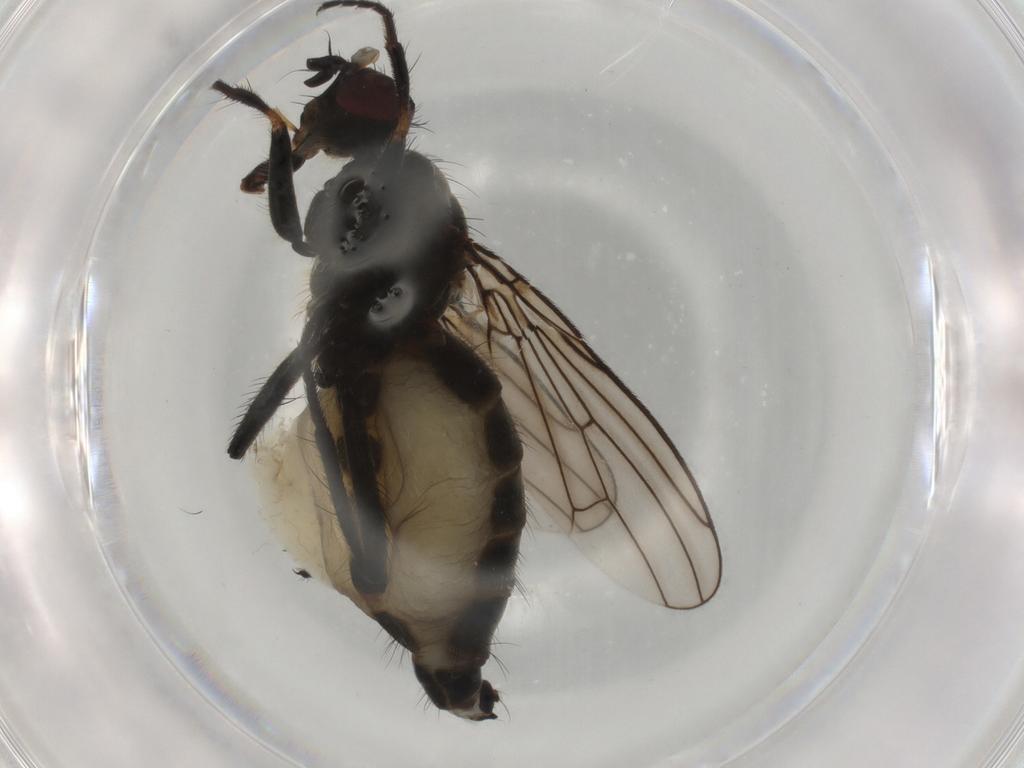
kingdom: Animalia
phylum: Arthropoda
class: Insecta
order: Diptera
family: Scathophagidae
